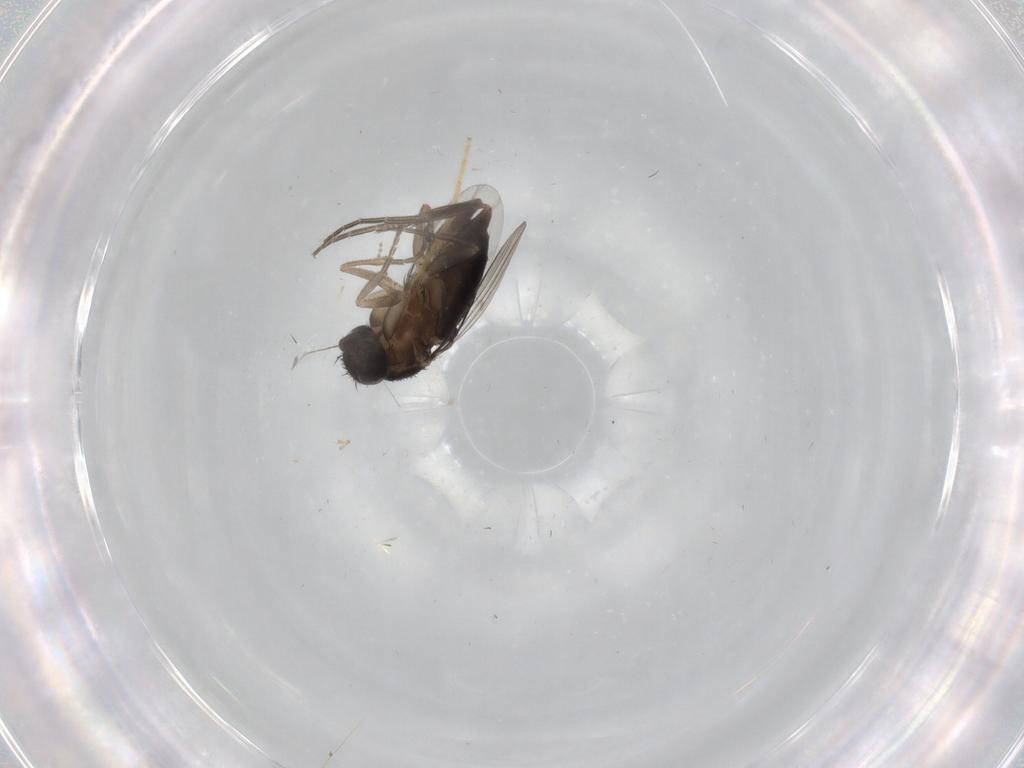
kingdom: Animalia
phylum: Arthropoda
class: Insecta
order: Diptera
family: Phoridae
